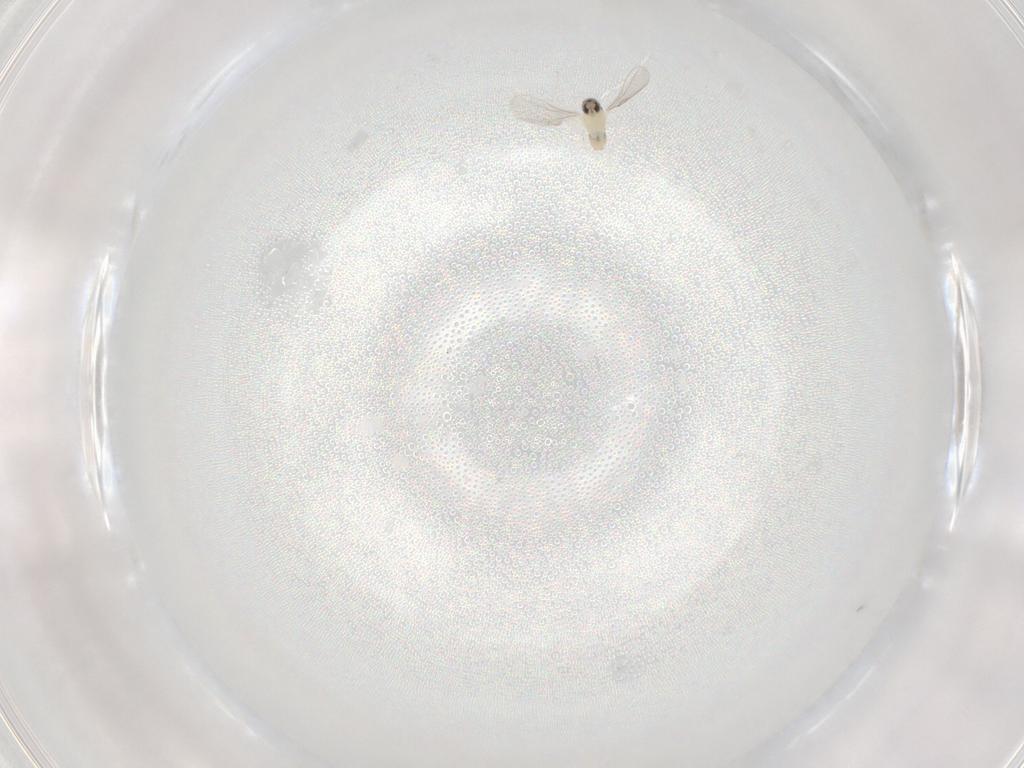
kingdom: Animalia
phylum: Arthropoda
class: Insecta
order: Diptera
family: Cecidomyiidae
